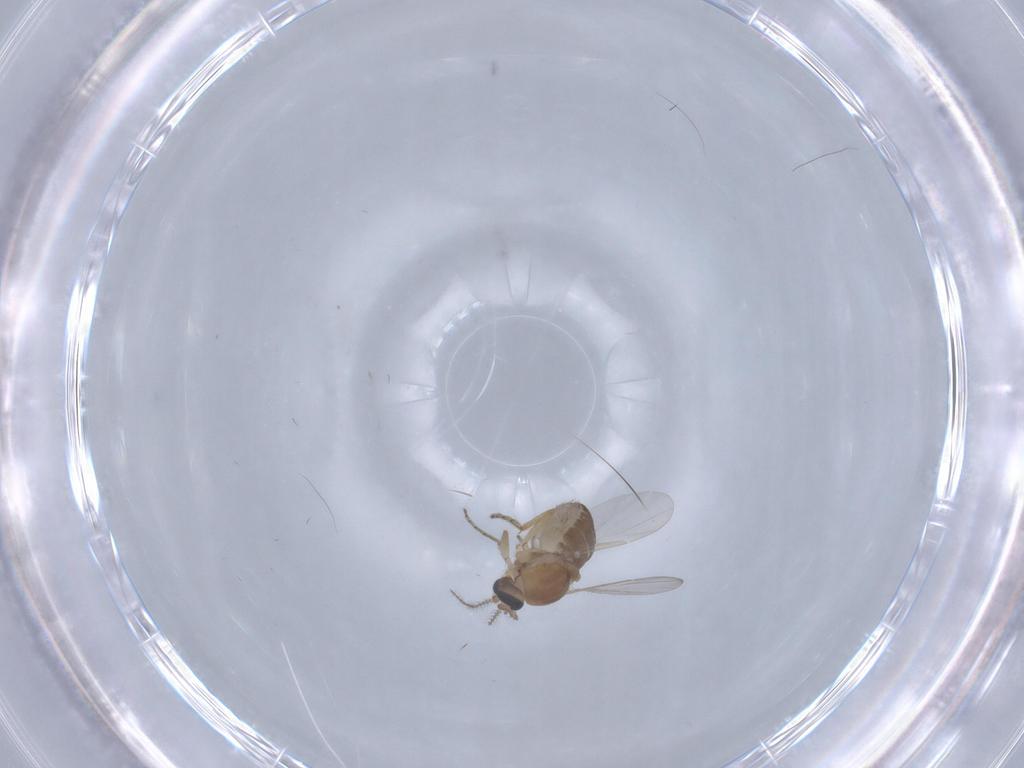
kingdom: Animalia
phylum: Arthropoda
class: Insecta
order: Diptera
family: Ceratopogonidae
